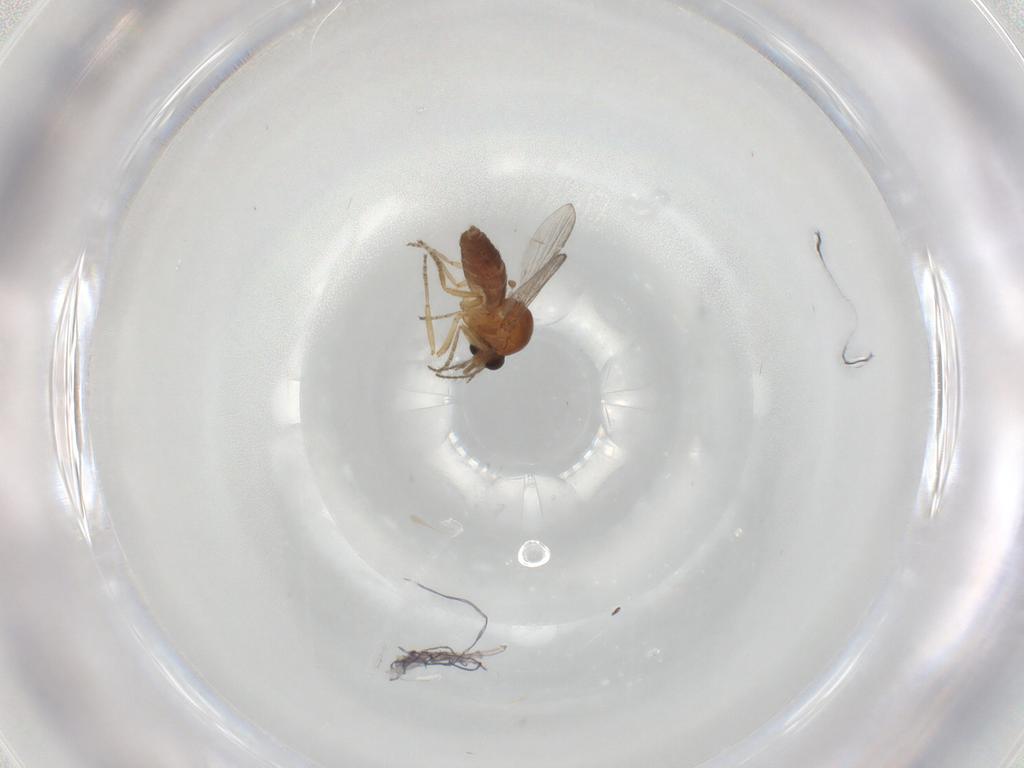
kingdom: Animalia
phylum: Arthropoda
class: Insecta
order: Diptera
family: Ceratopogonidae
